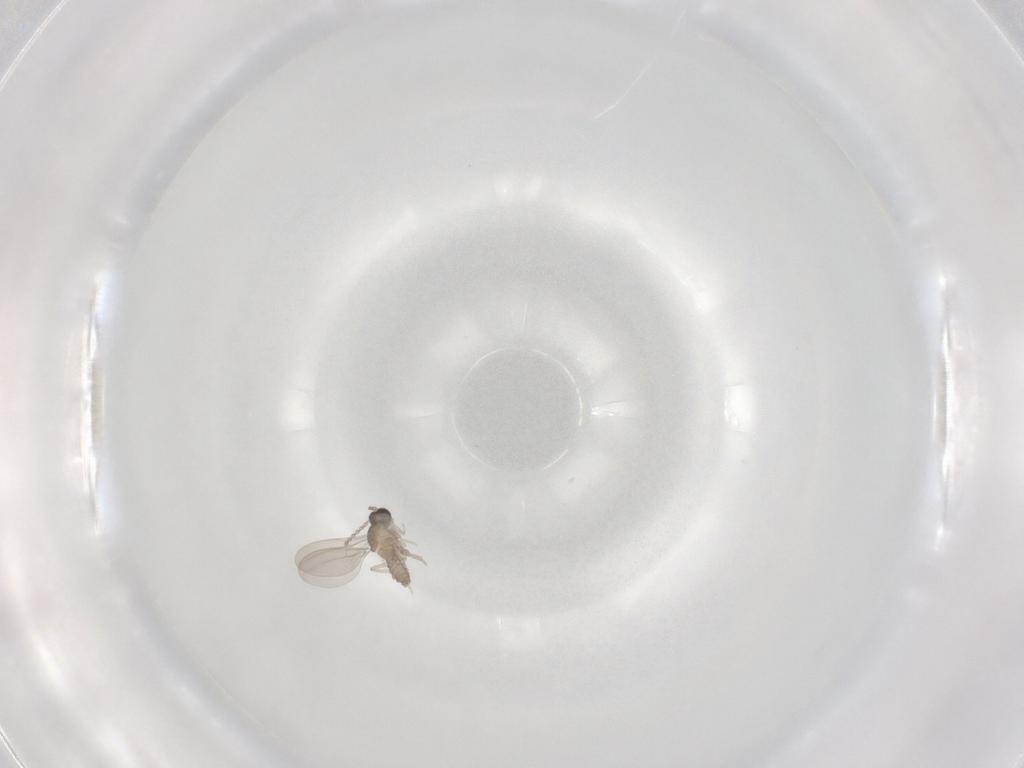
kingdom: Animalia
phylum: Arthropoda
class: Insecta
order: Diptera
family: Cecidomyiidae
